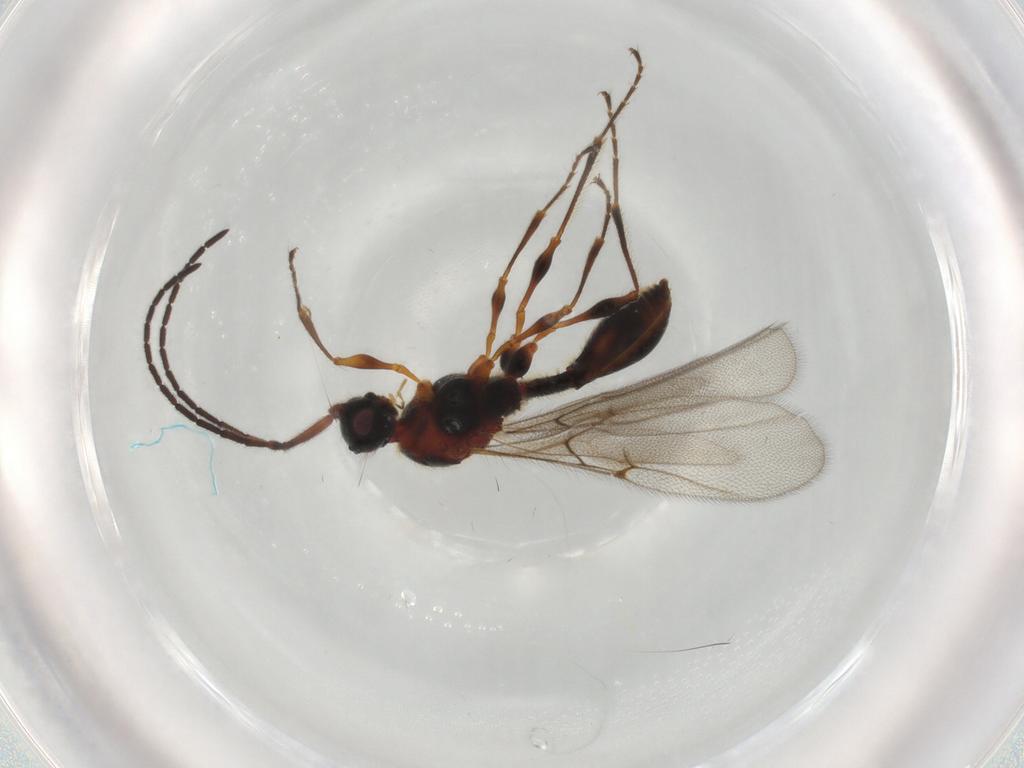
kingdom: Animalia
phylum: Arthropoda
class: Insecta
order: Hymenoptera
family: Diapriidae
